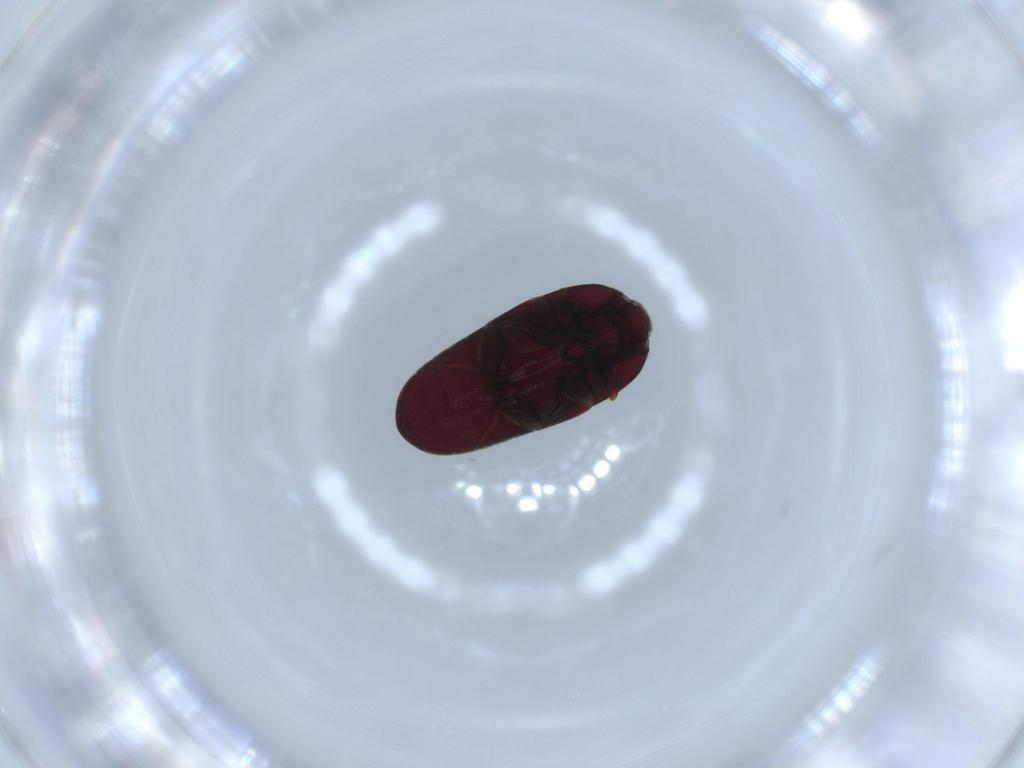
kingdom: Animalia
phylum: Arthropoda
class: Insecta
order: Coleoptera
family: Throscidae
